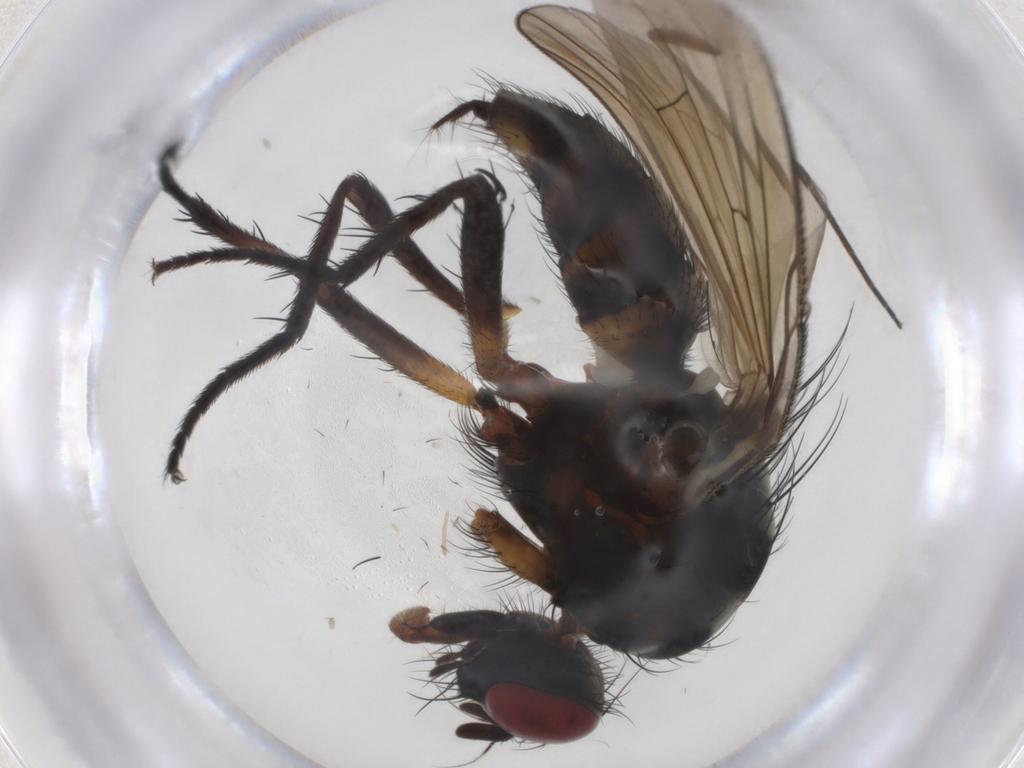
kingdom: Animalia
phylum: Arthropoda
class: Insecta
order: Diptera
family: Anthomyiidae
